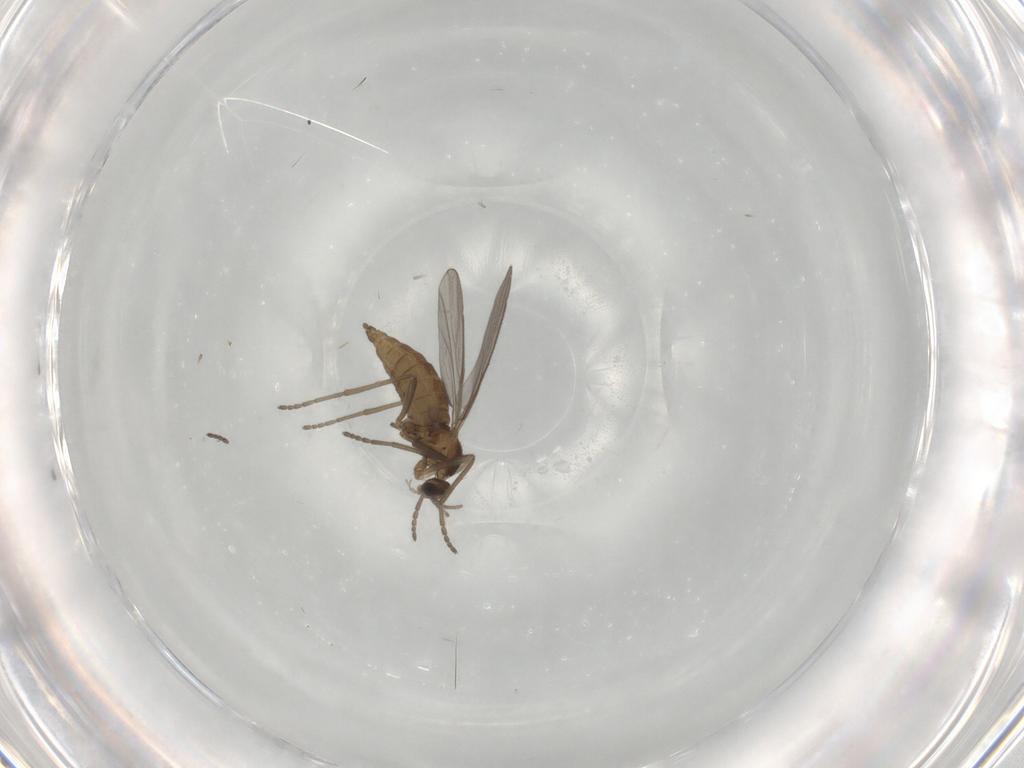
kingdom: Animalia
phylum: Arthropoda
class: Insecta
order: Diptera
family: Cecidomyiidae
